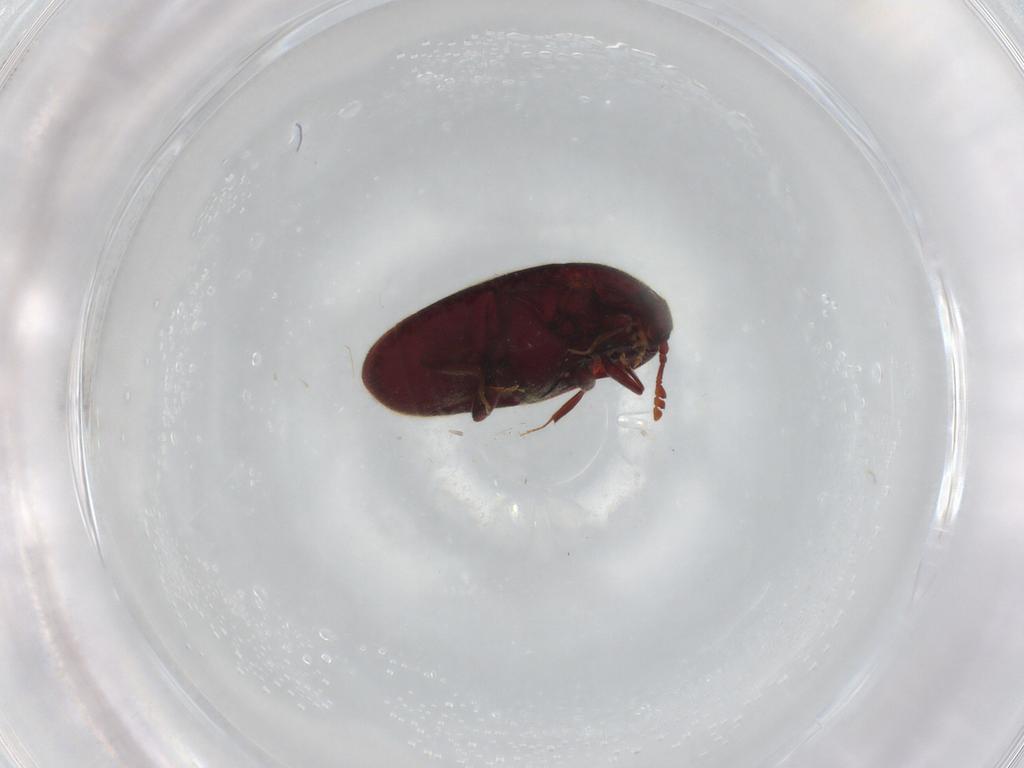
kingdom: Animalia
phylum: Arthropoda
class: Insecta
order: Coleoptera
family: Throscidae
